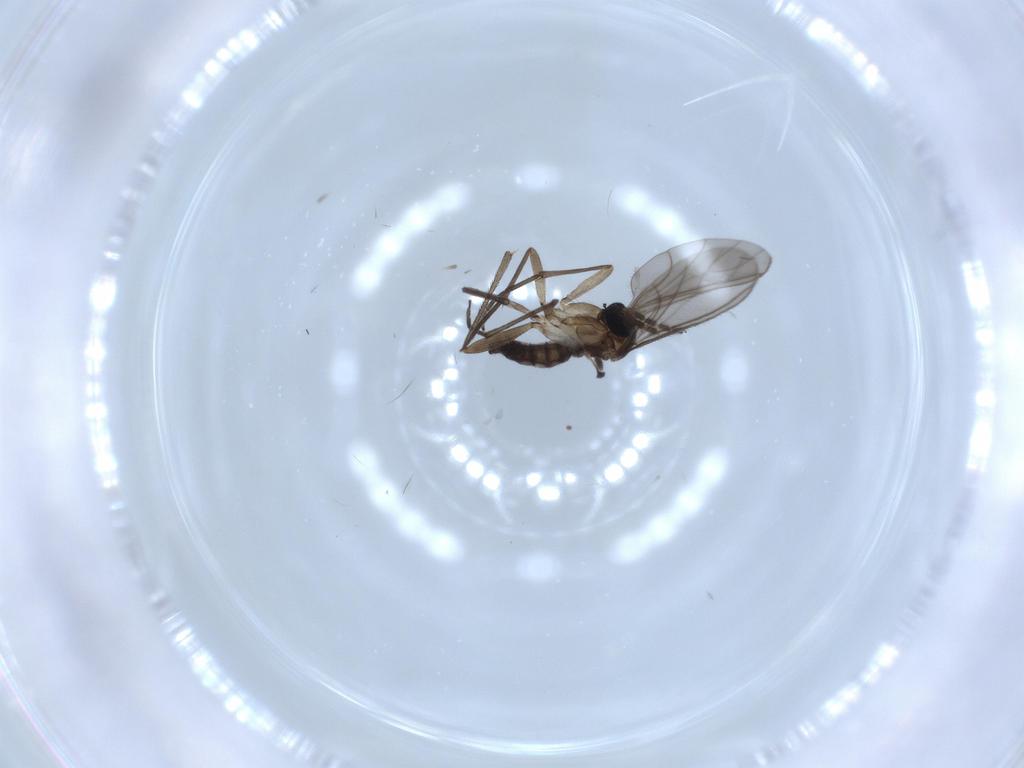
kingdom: Animalia
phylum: Arthropoda
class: Insecta
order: Diptera
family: Sciaridae
